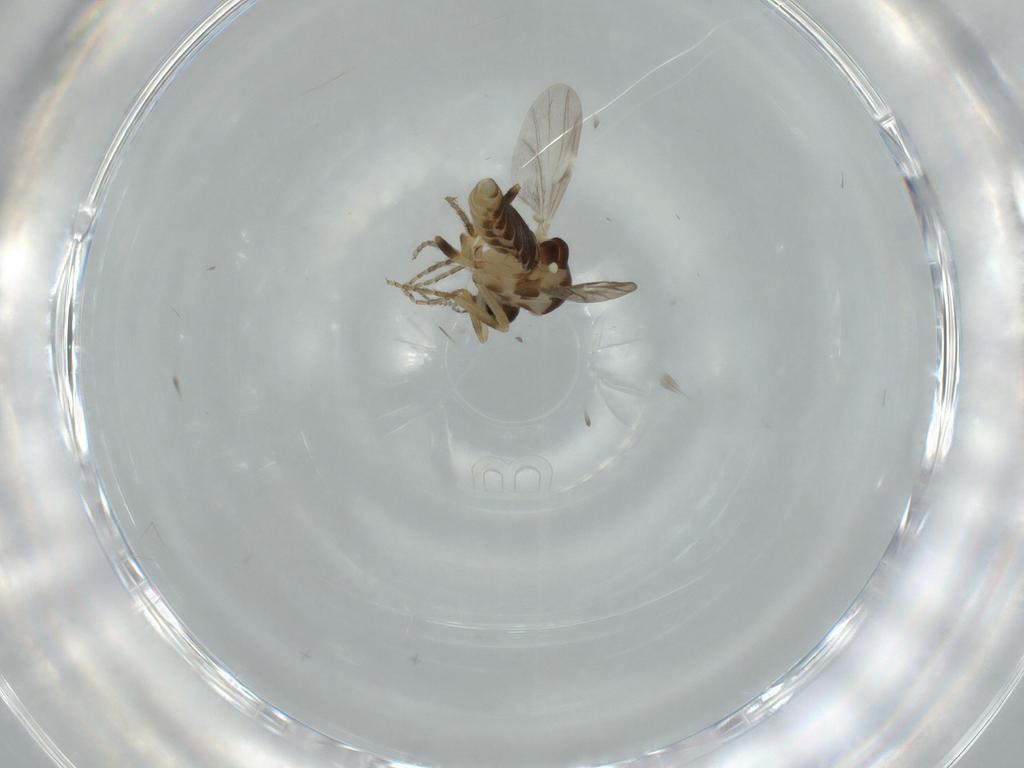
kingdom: Animalia
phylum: Arthropoda
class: Insecta
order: Diptera
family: Ceratopogonidae
